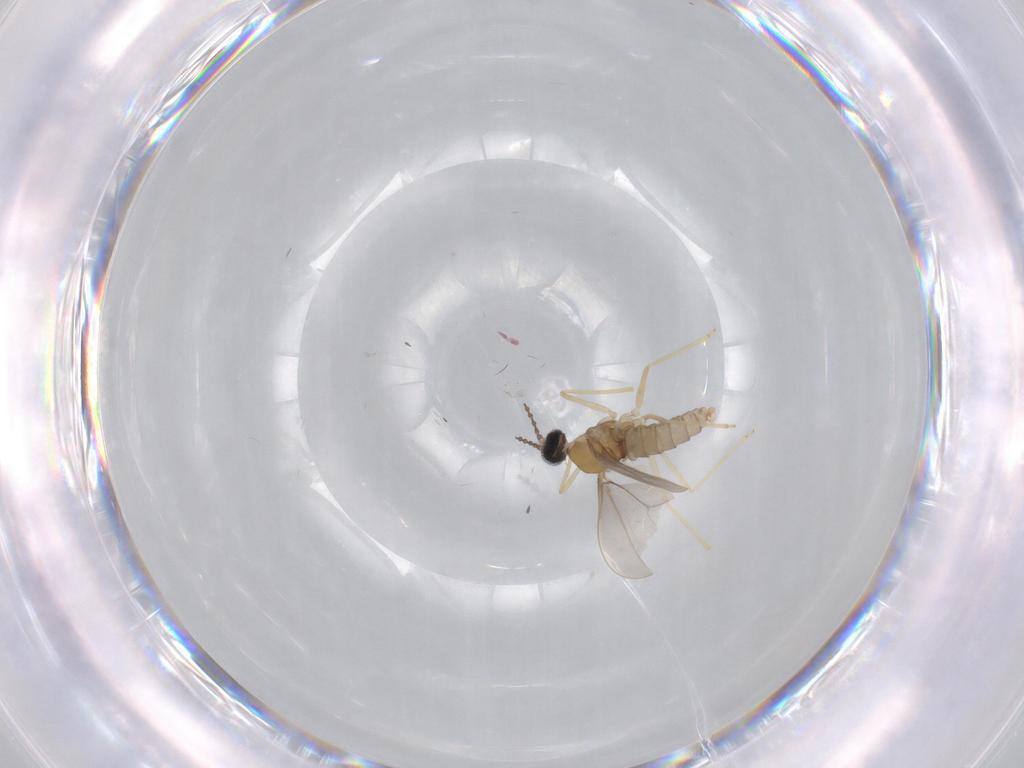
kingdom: Animalia
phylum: Arthropoda
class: Insecta
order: Diptera
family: Cecidomyiidae
